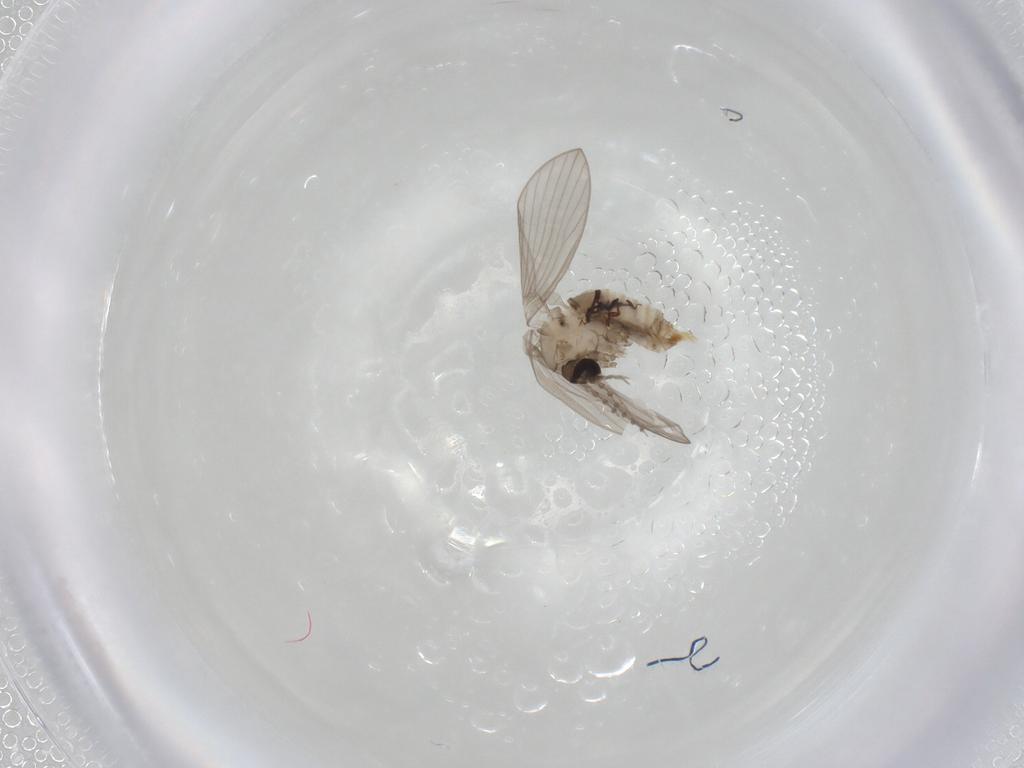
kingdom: Animalia
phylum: Arthropoda
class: Insecta
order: Diptera
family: Psychodidae
